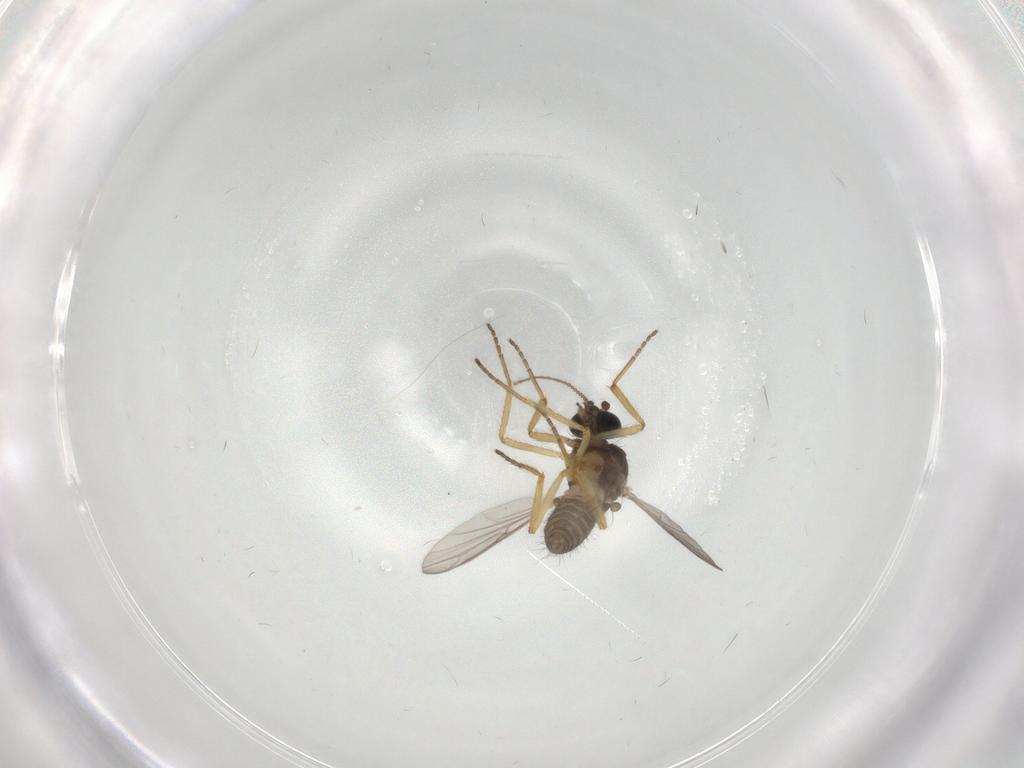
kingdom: Animalia
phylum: Arthropoda
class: Insecta
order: Diptera
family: Ceratopogonidae
